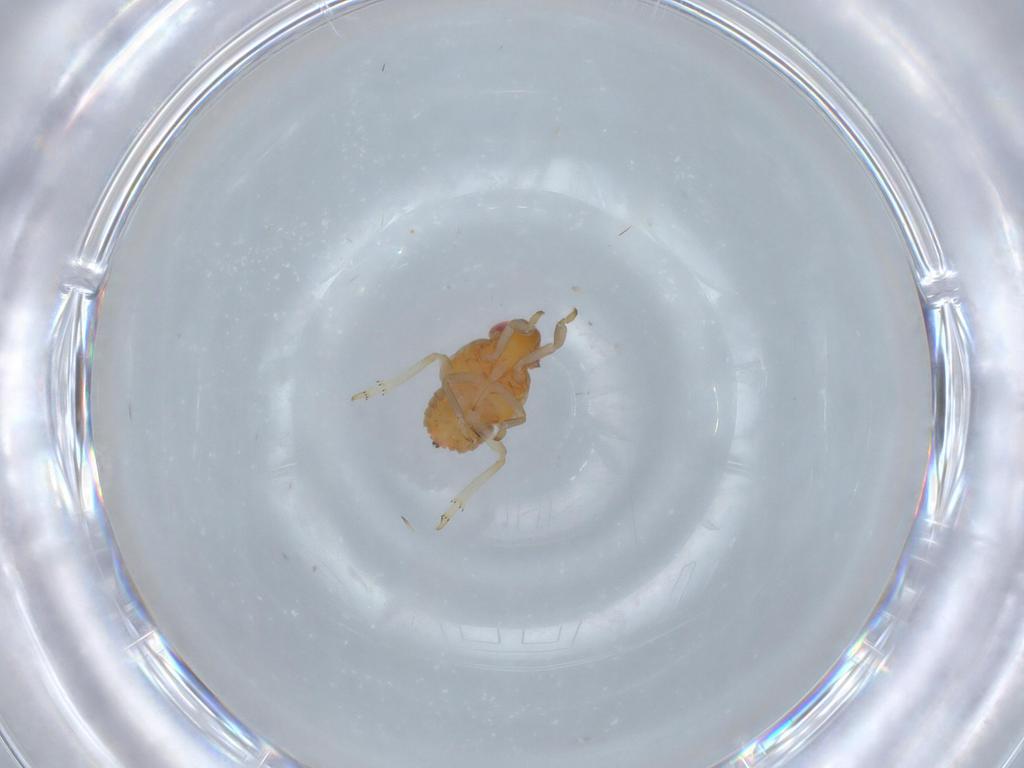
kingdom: Animalia
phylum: Arthropoda
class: Insecta
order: Hemiptera
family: Fulgoroidea_incertae_sedis
